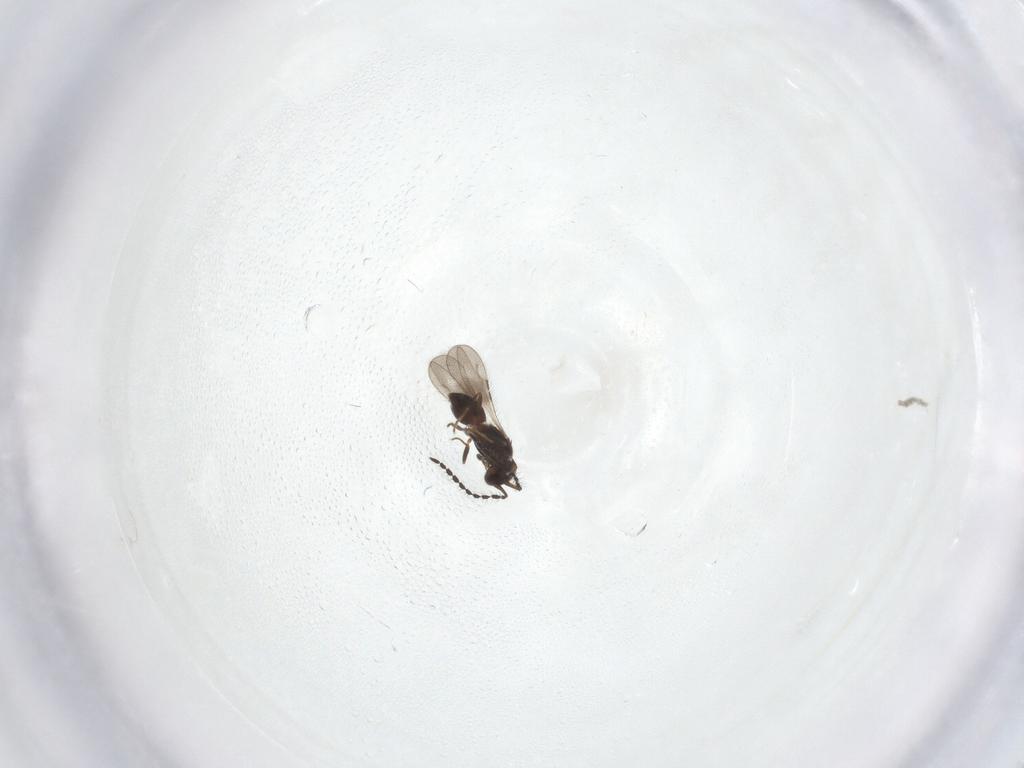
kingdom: Animalia
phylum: Arthropoda
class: Insecta
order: Hymenoptera
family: Ceraphronidae
